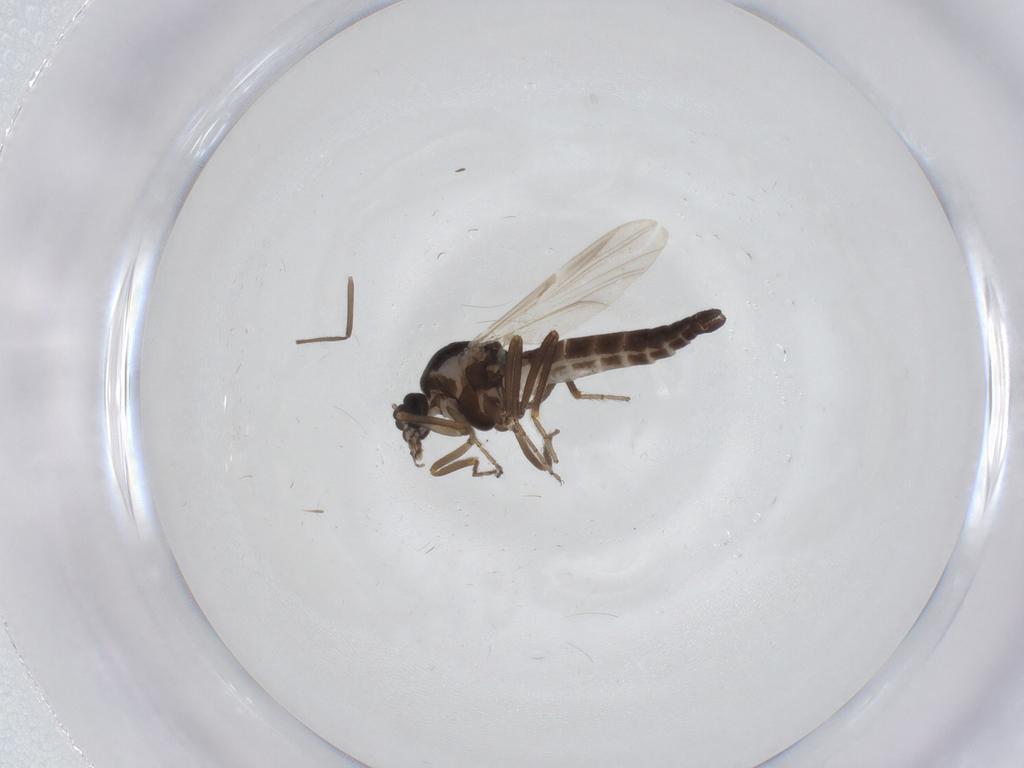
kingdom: Animalia
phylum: Arthropoda
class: Insecta
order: Diptera
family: Ceratopogonidae
